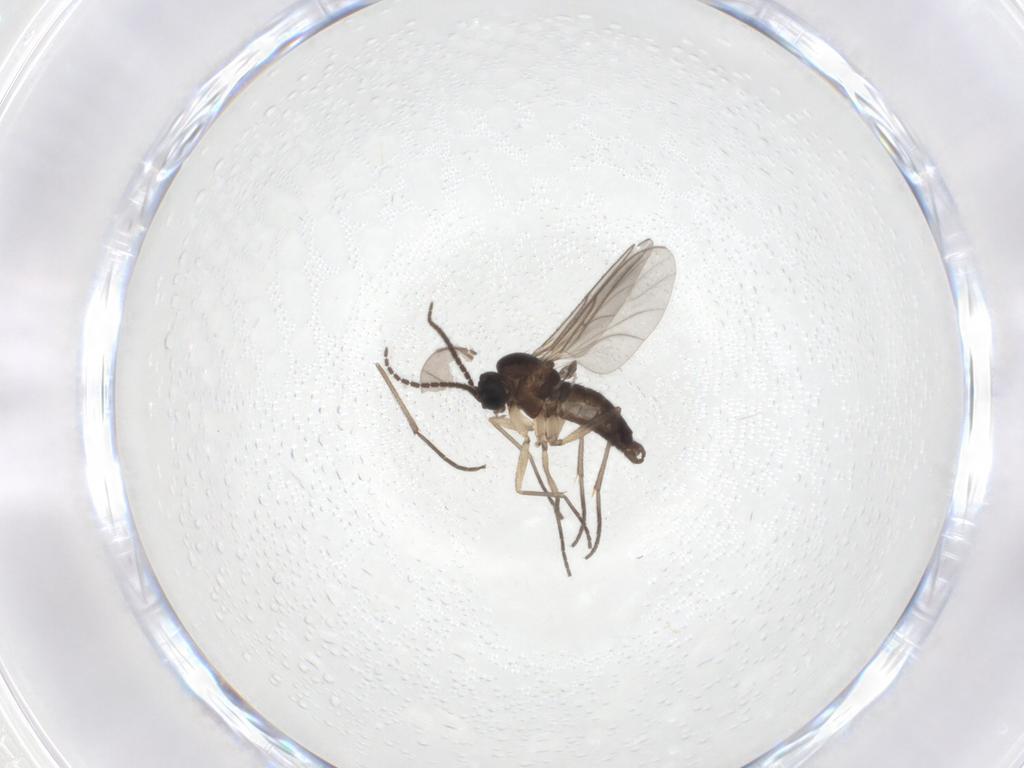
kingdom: Animalia
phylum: Arthropoda
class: Insecta
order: Diptera
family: Sciaridae
